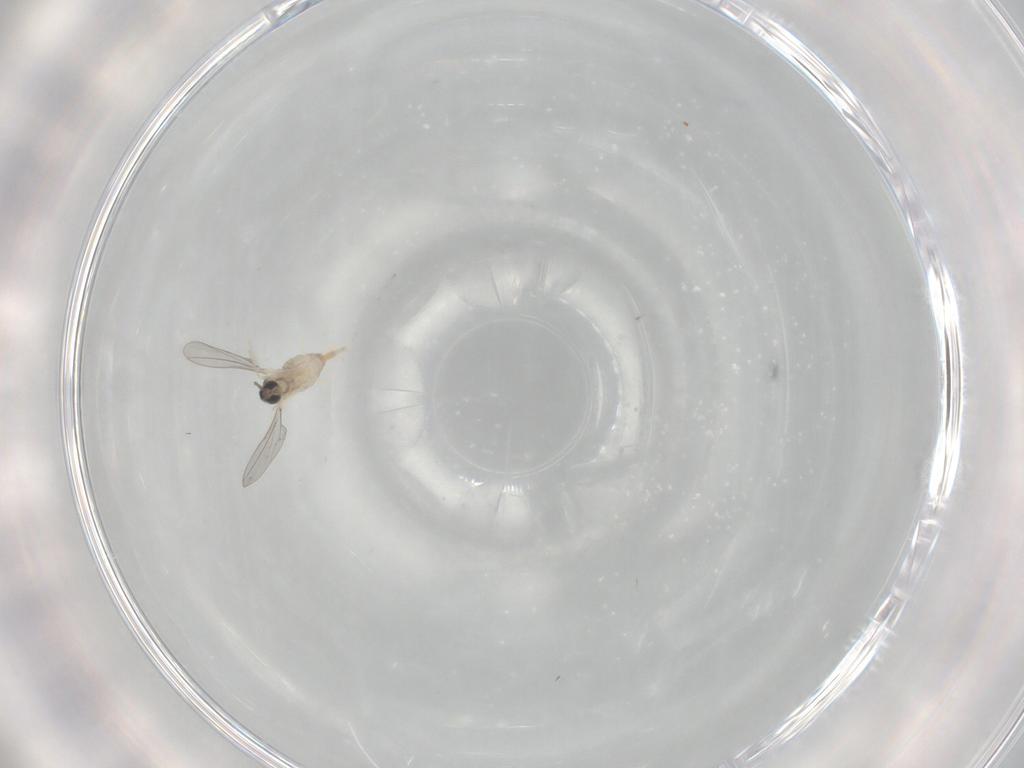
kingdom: Animalia
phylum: Arthropoda
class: Insecta
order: Diptera
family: Cecidomyiidae
